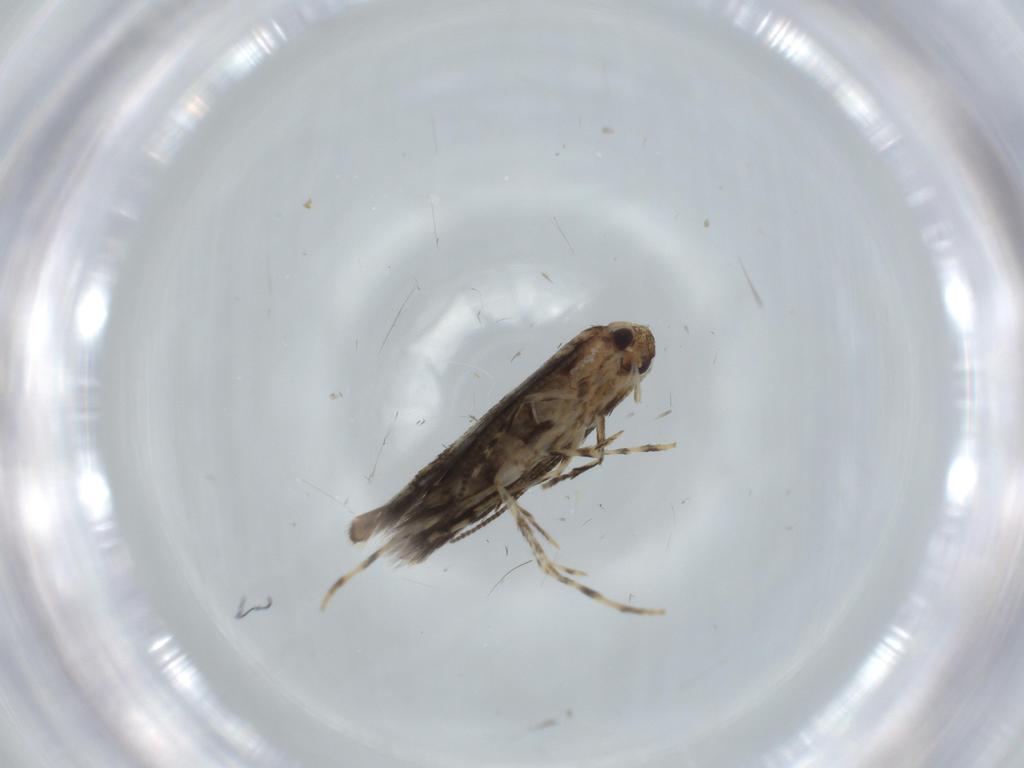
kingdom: Animalia
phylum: Arthropoda
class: Insecta
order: Lepidoptera
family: Gracillariidae
